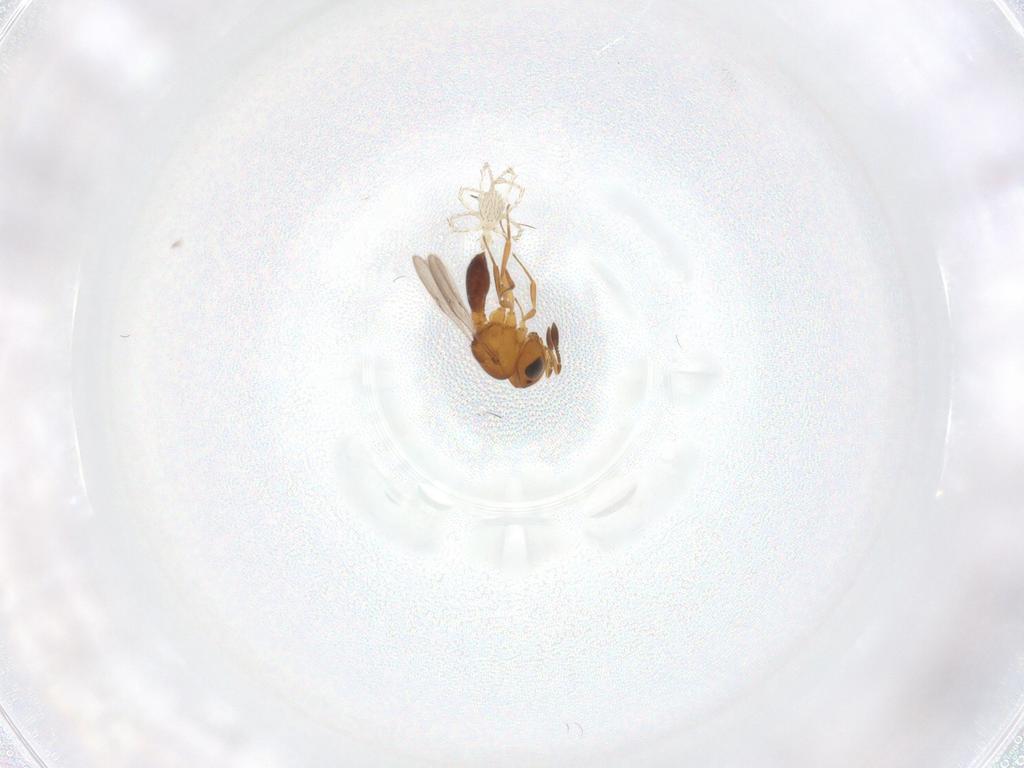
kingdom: Animalia
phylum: Arthropoda
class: Insecta
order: Hymenoptera
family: Scelionidae
